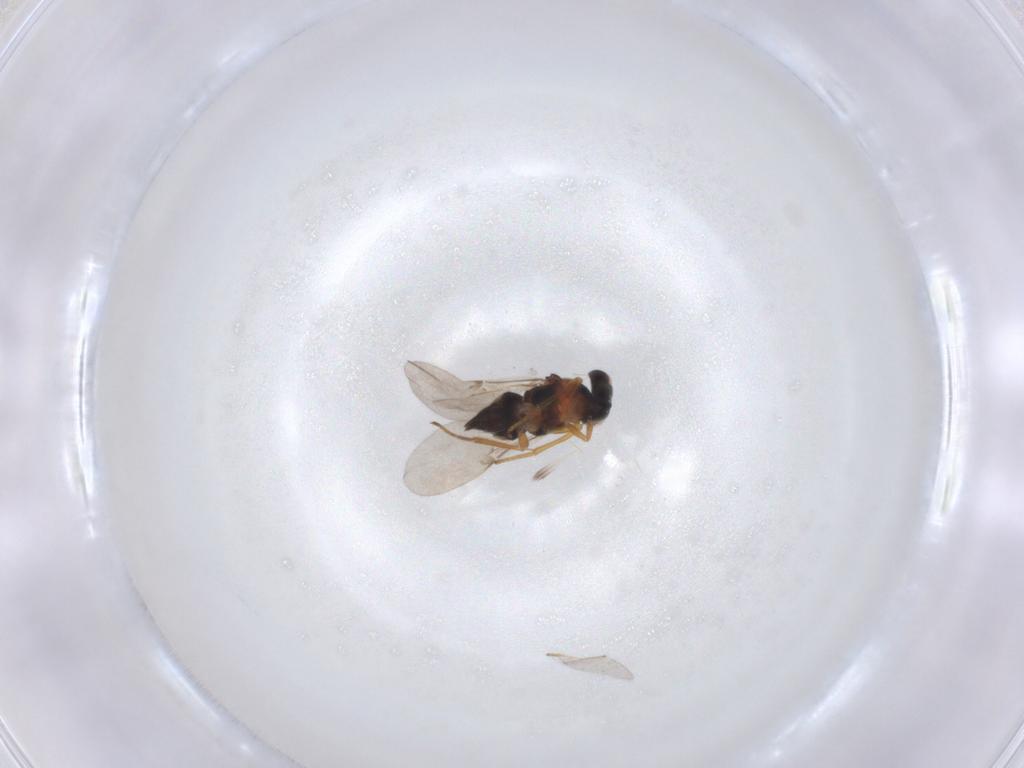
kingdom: Animalia
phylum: Arthropoda
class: Insecta
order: Hymenoptera
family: Platygastridae
